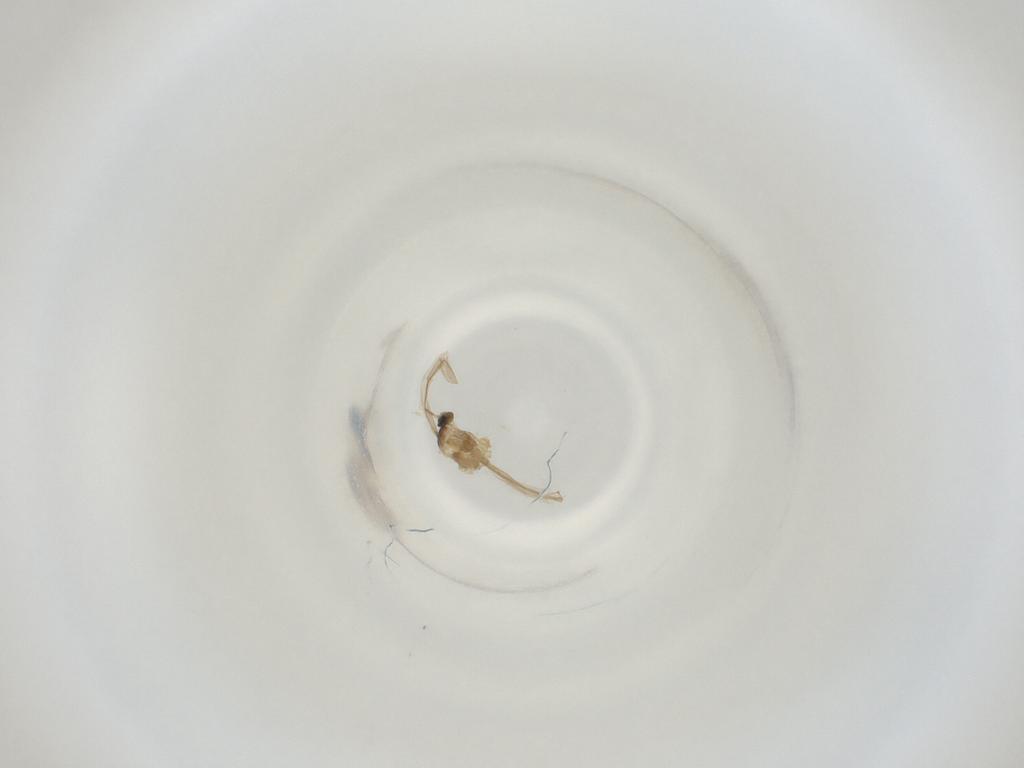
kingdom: Animalia
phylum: Arthropoda
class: Insecta
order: Diptera
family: Cecidomyiidae
